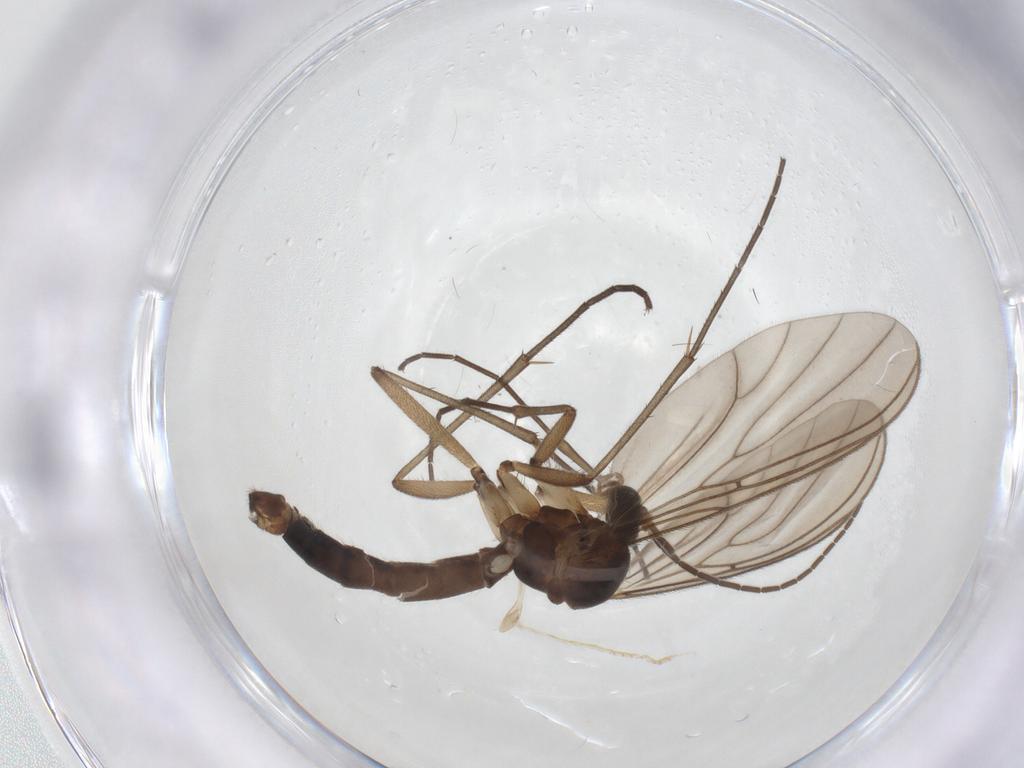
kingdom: Animalia
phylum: Arthropoda
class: Insecta
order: Diptera
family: Mycetophilidae
